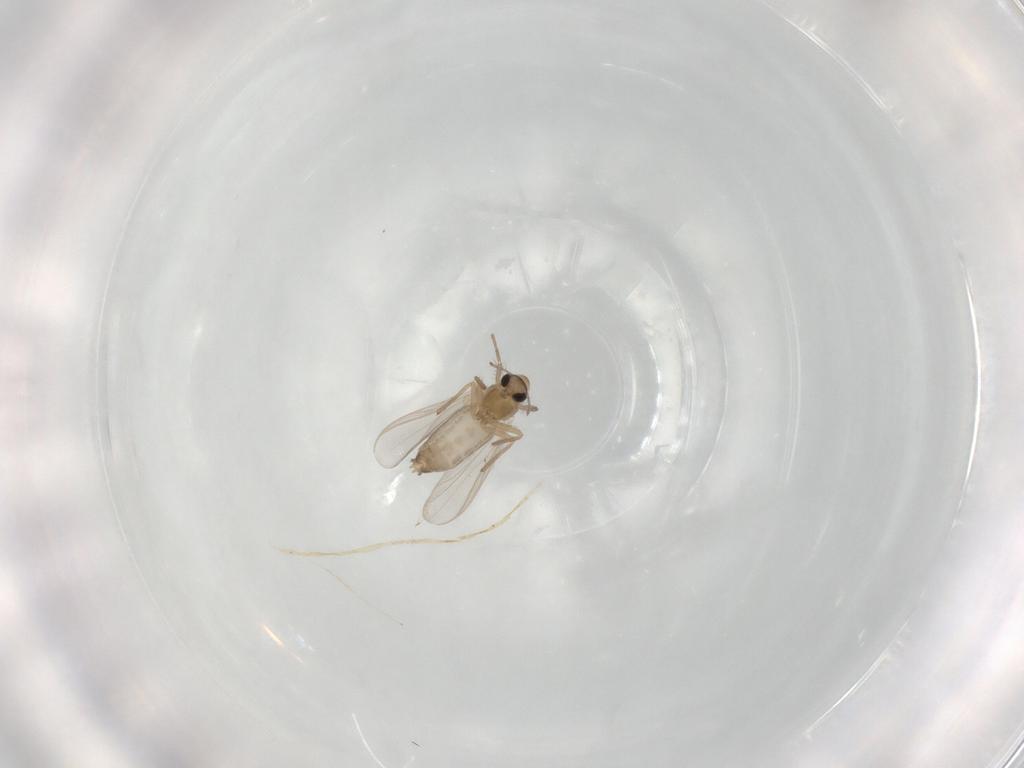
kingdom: Animalia
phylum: Arthropoda
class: Insecta
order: Diptera
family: Chironomidae
